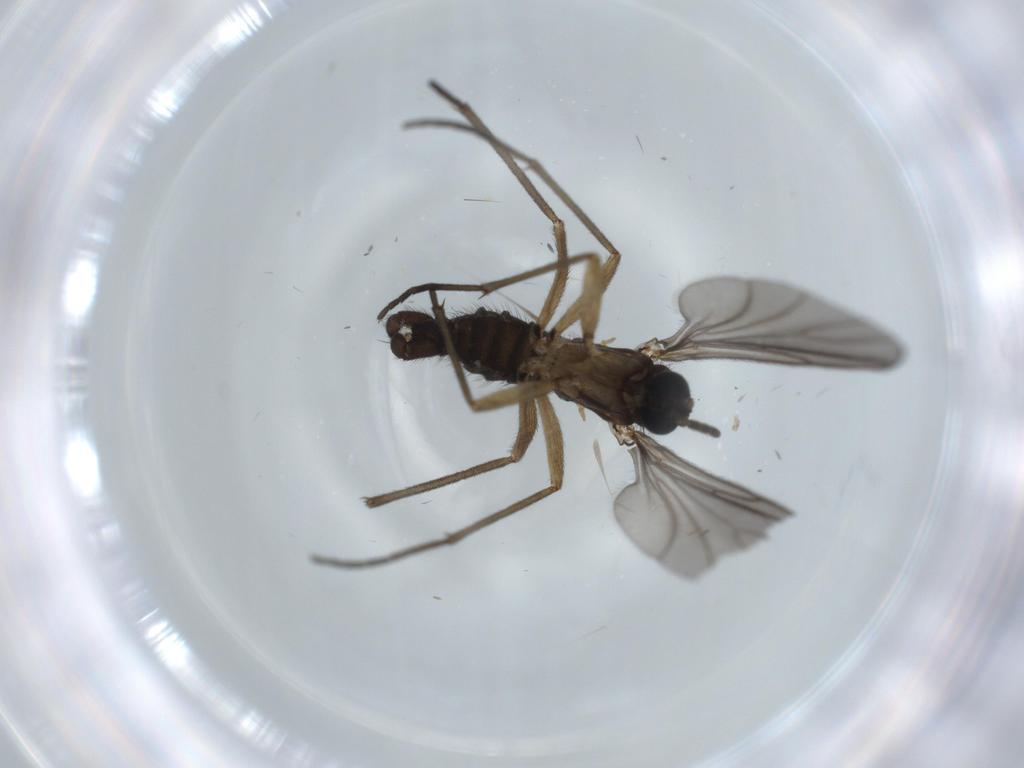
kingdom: Animalia
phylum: Arthropoda
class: Insecta
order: Diptera
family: Sciaridae
